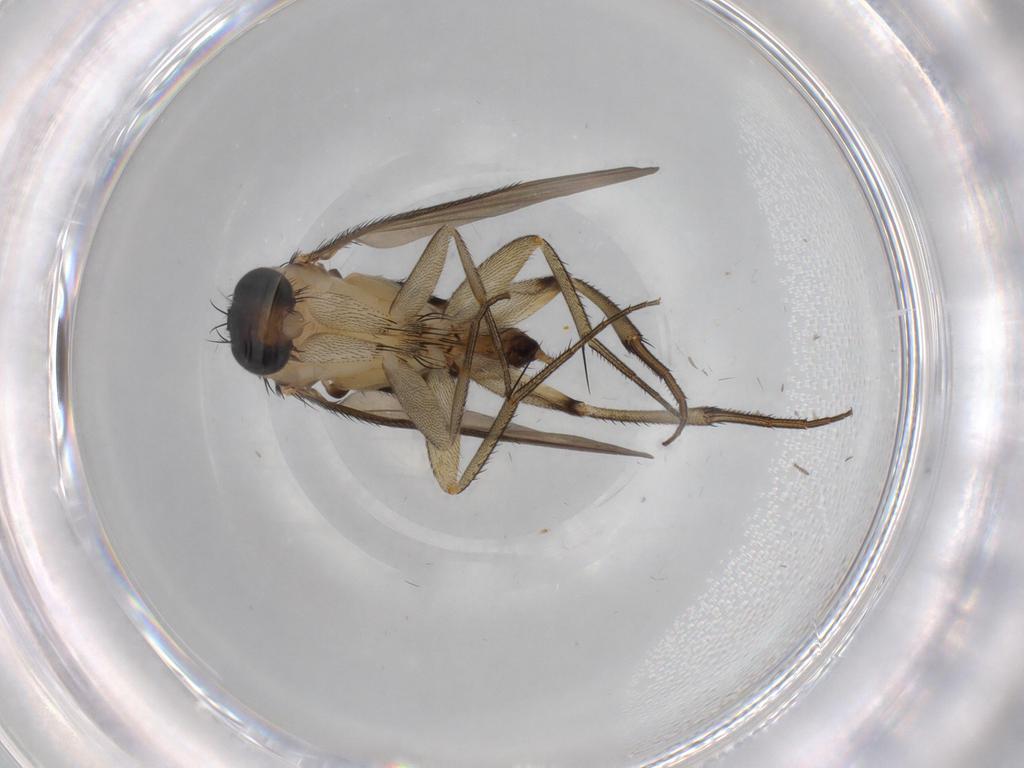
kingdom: Animalia
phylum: Arthropoda
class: Insecta
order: Diptera
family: Phoridae
